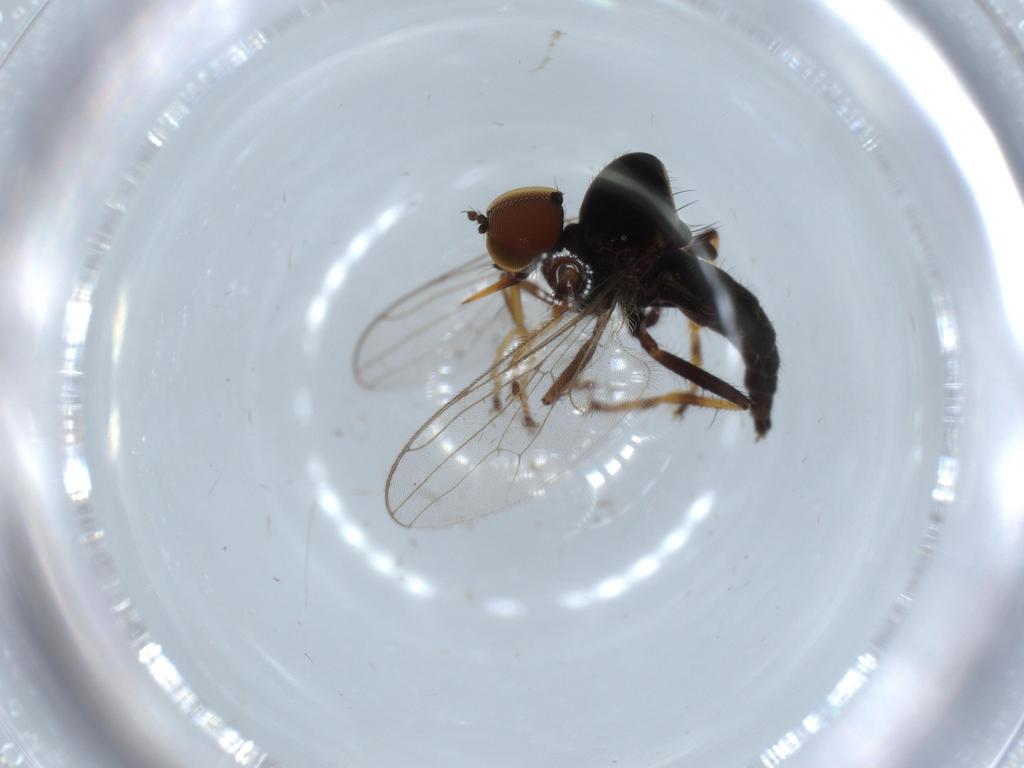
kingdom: Animalia
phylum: Arthropoda
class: Insecta
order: Diptera
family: Hybotidae
